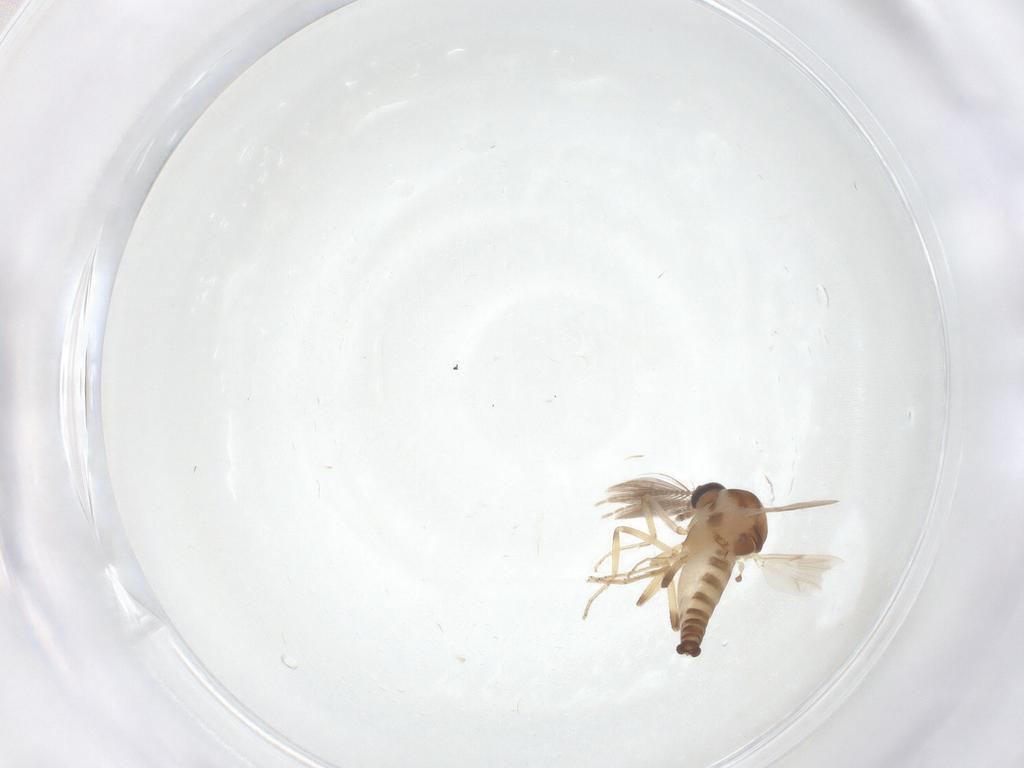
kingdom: Animalia
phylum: Arthropoda
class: Insecta
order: Diptera
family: Ceratopogonidae
